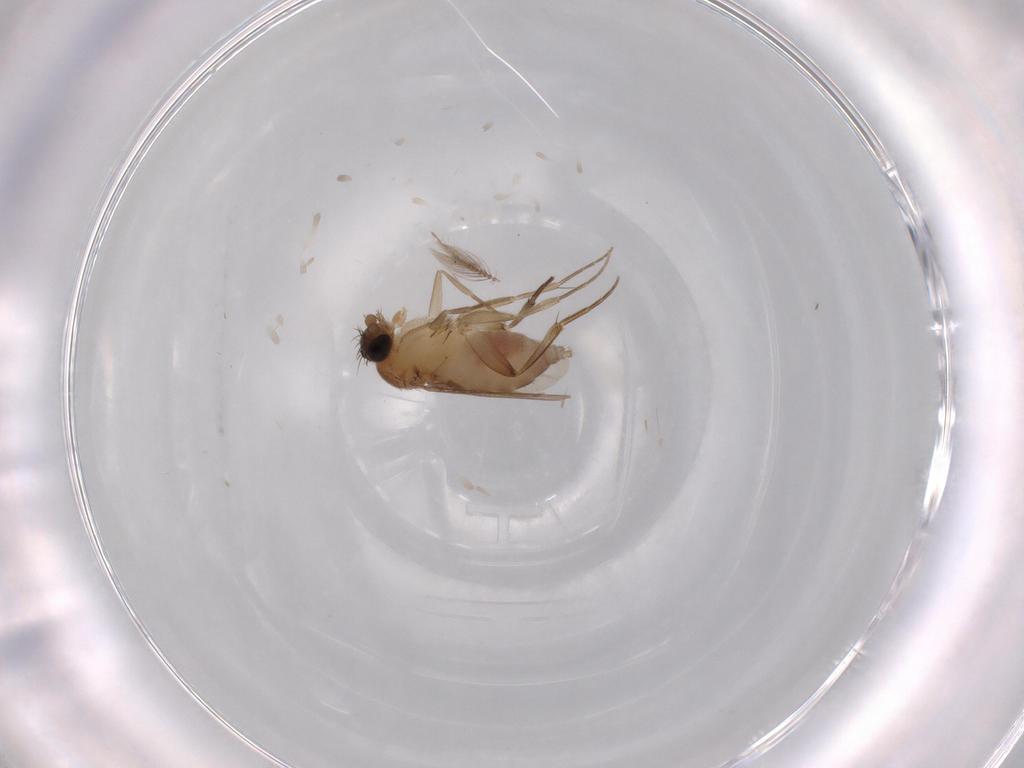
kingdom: Animalia
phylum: Arthropoda
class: Insecta
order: Diptera
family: Phoridae
